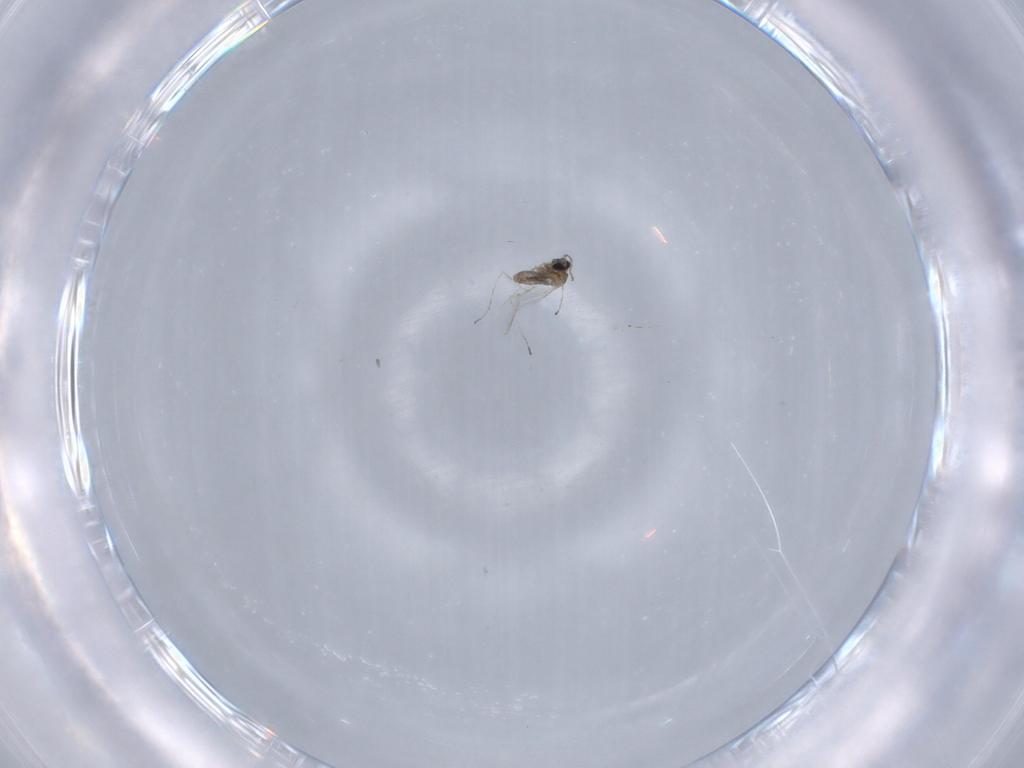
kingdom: Animalia
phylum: Arthropoda
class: Insecta
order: Diptera
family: Cecidomyiidae
